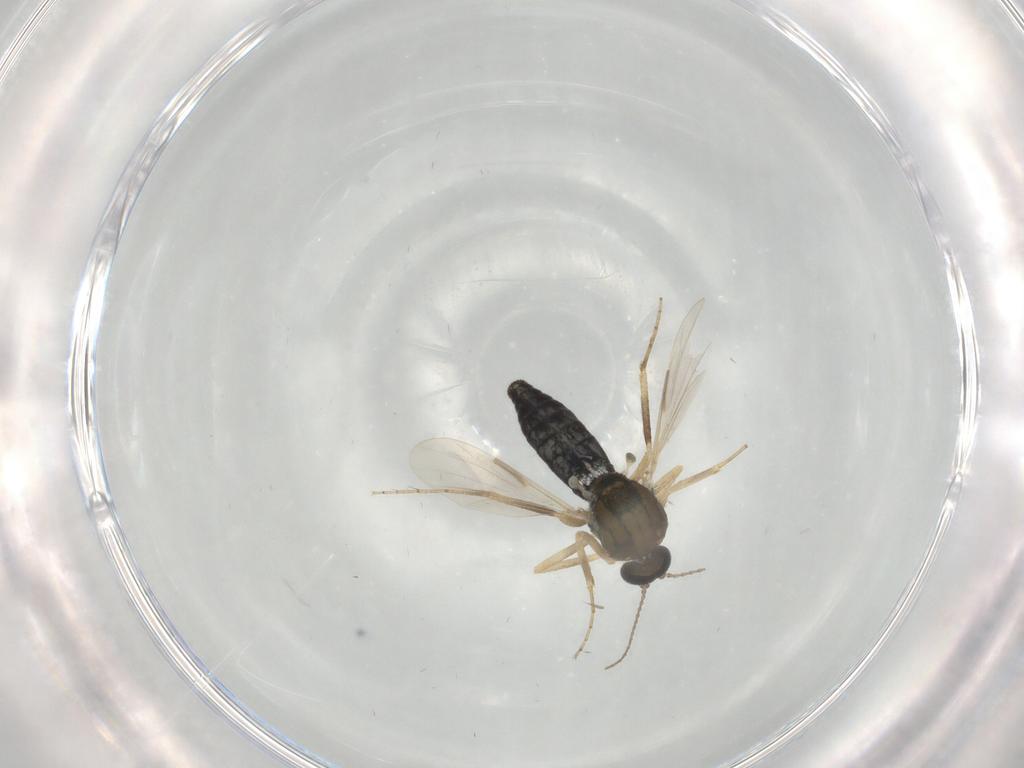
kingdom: Animalia
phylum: Arthropoda
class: Insecta
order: Diptera
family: Ceratopogonidae
